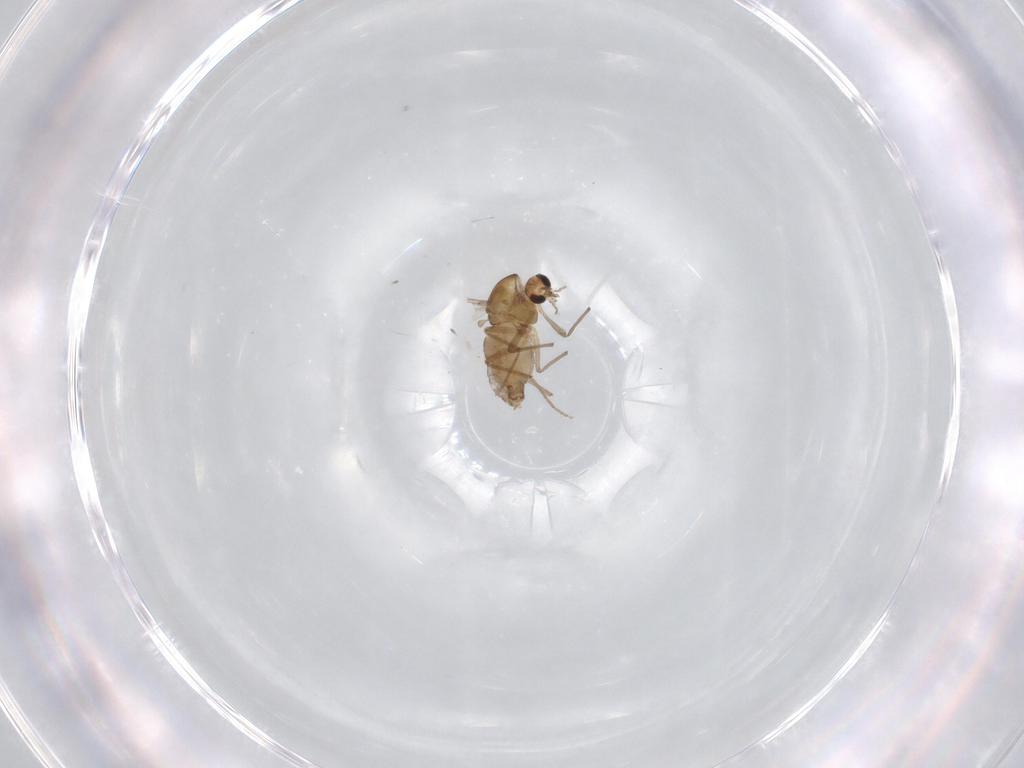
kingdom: Animalia
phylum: Arthropoda
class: Insecta
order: Diptera
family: Chironomidae
